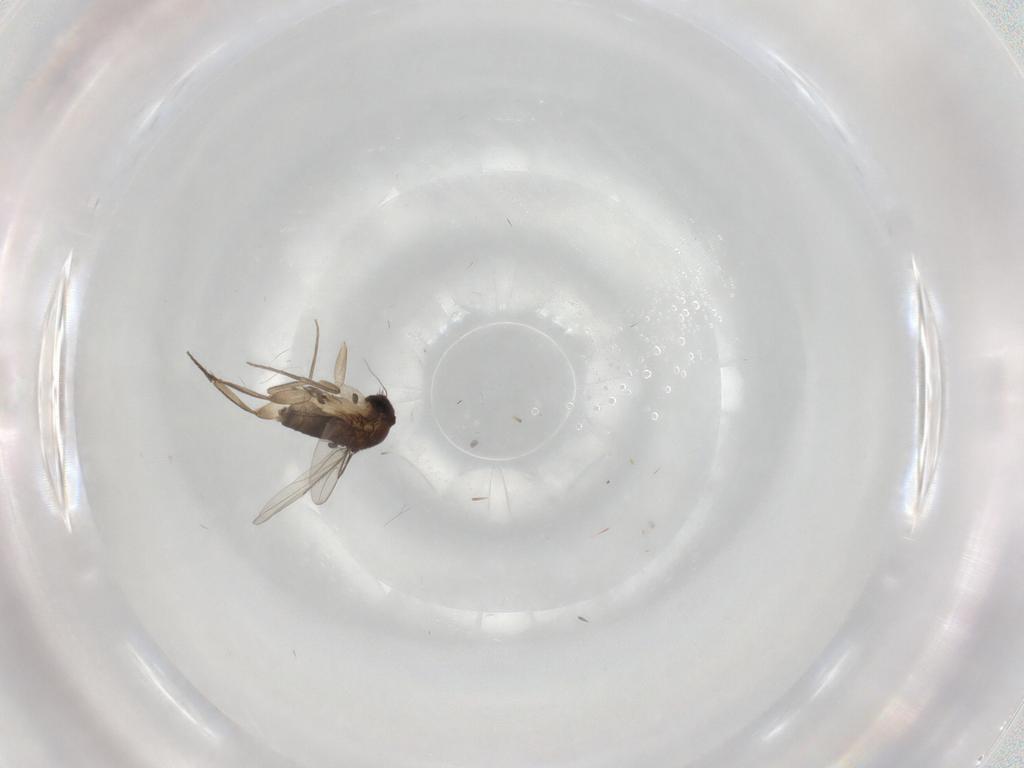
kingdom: Animalia
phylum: Arthropoda
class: Insecta
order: Diptera
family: Phoridae
